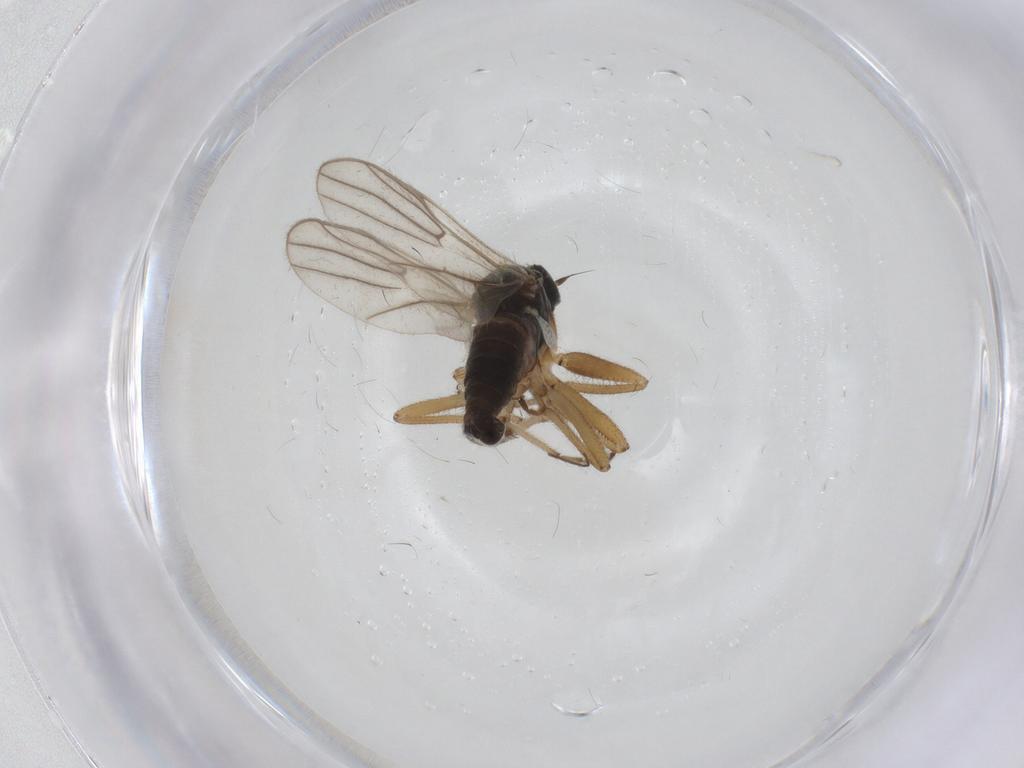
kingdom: Animalia
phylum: Arthropoda
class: Insecta
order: Diptera
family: Hybotidae
